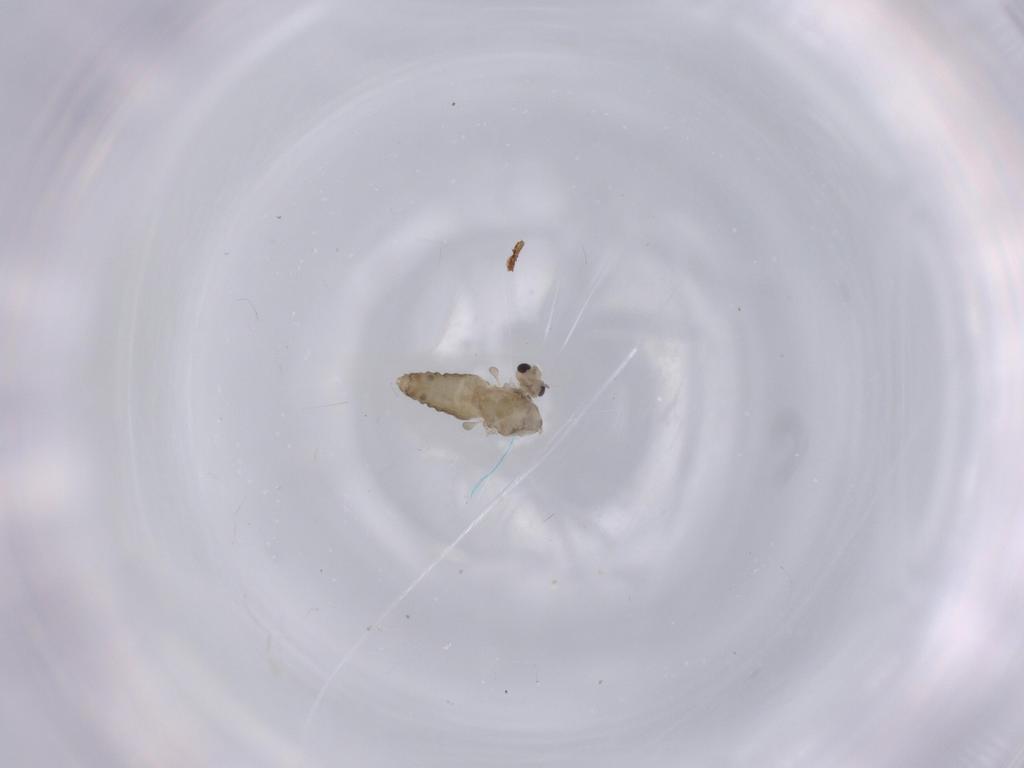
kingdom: Animalia
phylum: Arthropoda
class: Insecta
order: Diptera
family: Chironomidae
